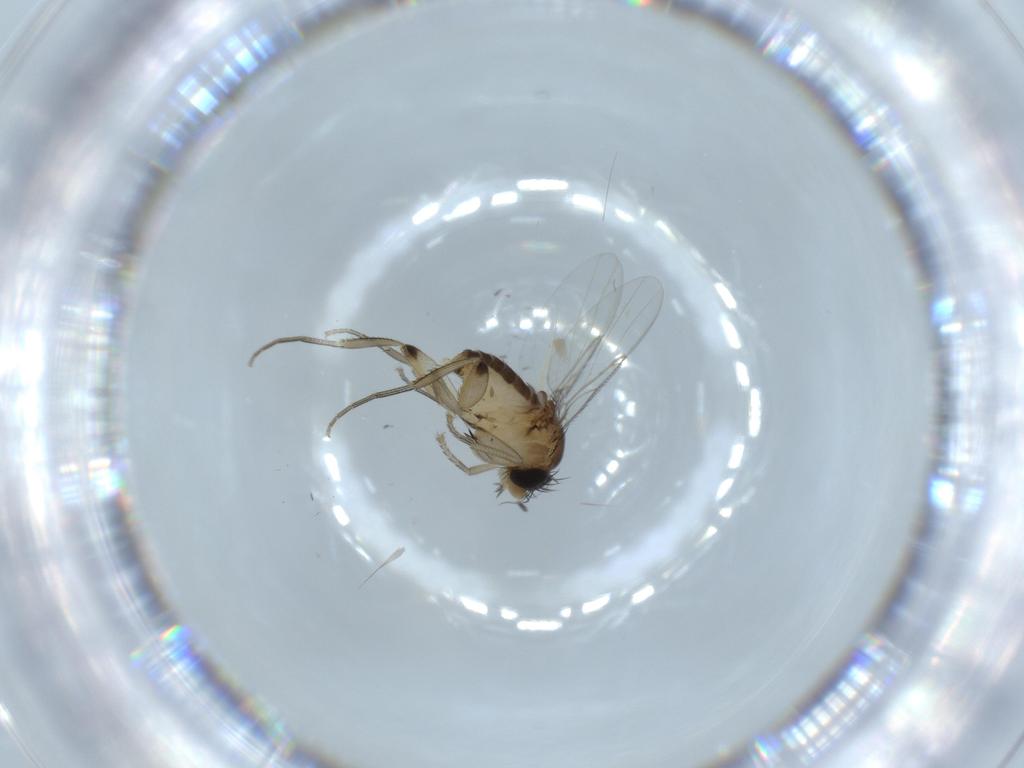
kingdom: Animalia
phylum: Arthropoda
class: Insecta
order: Diptera
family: Phoridae
